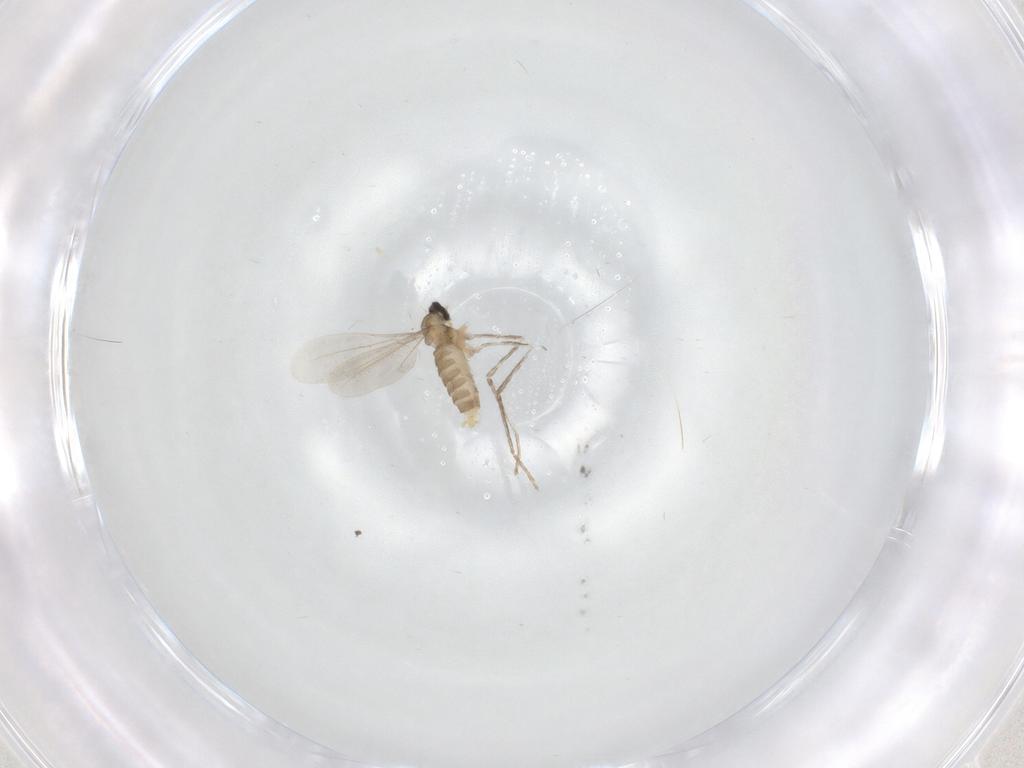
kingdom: Animalia
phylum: Arthropoda
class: Insecta
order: Diptera
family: Cecidomyiidae
